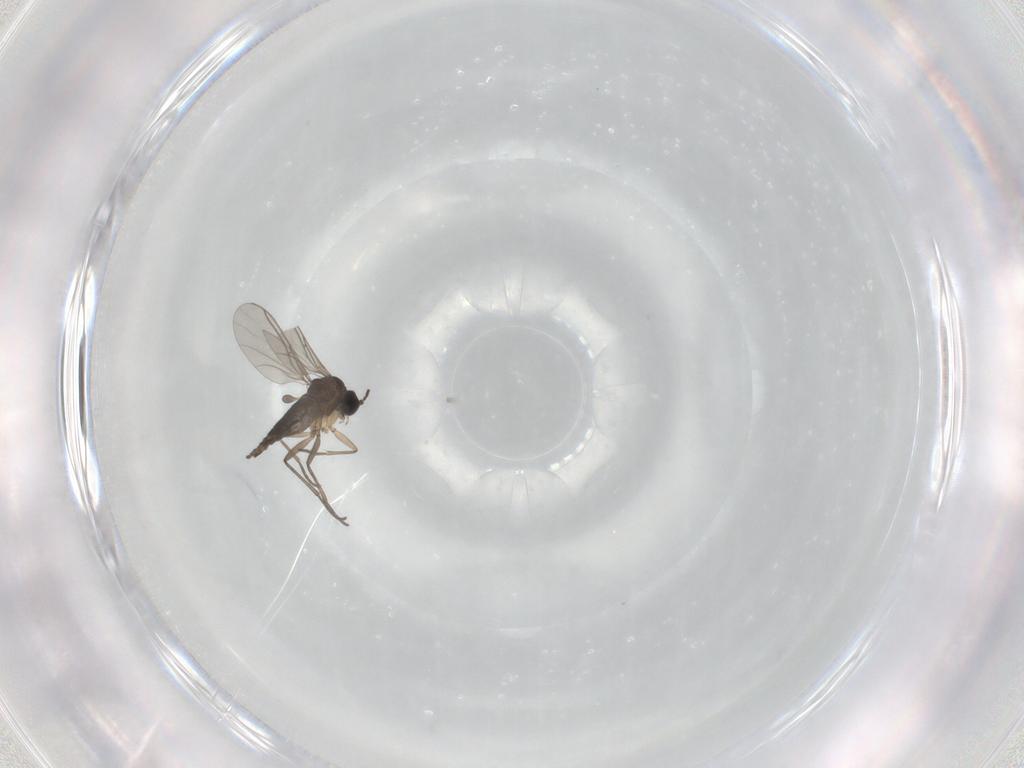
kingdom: Animalia
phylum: Arthropoda
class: Insecta
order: Diptera
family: Sciaridae
